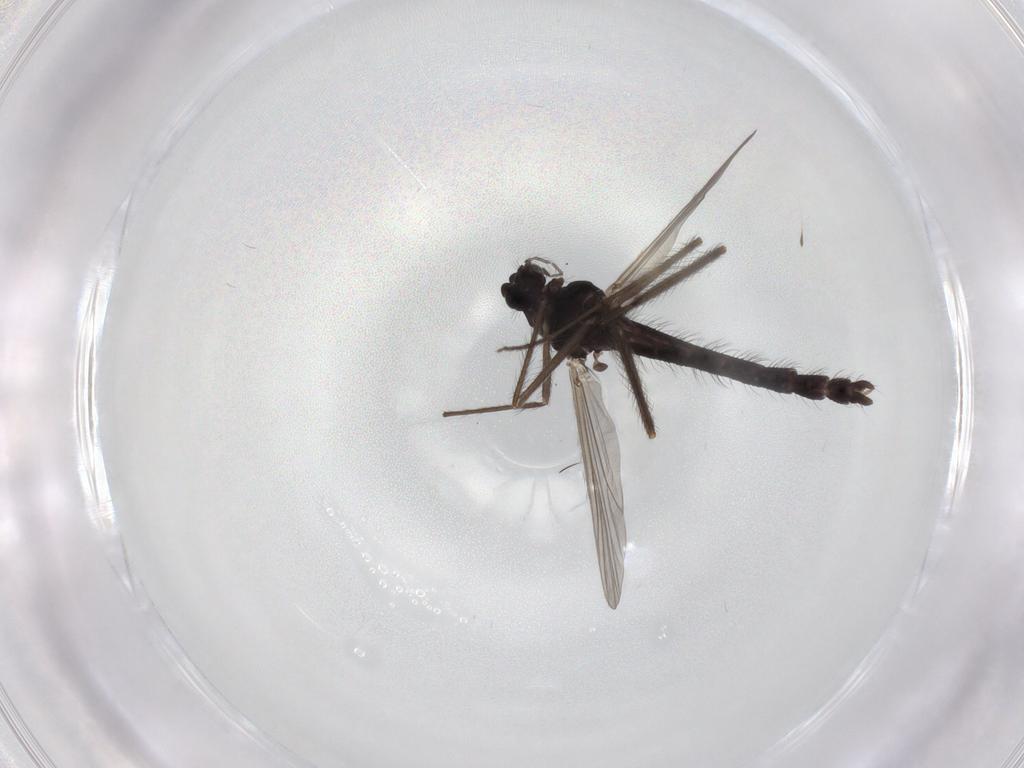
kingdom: Animalia
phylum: Arthropoda
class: Insecta
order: Diptera
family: Chironomidae
